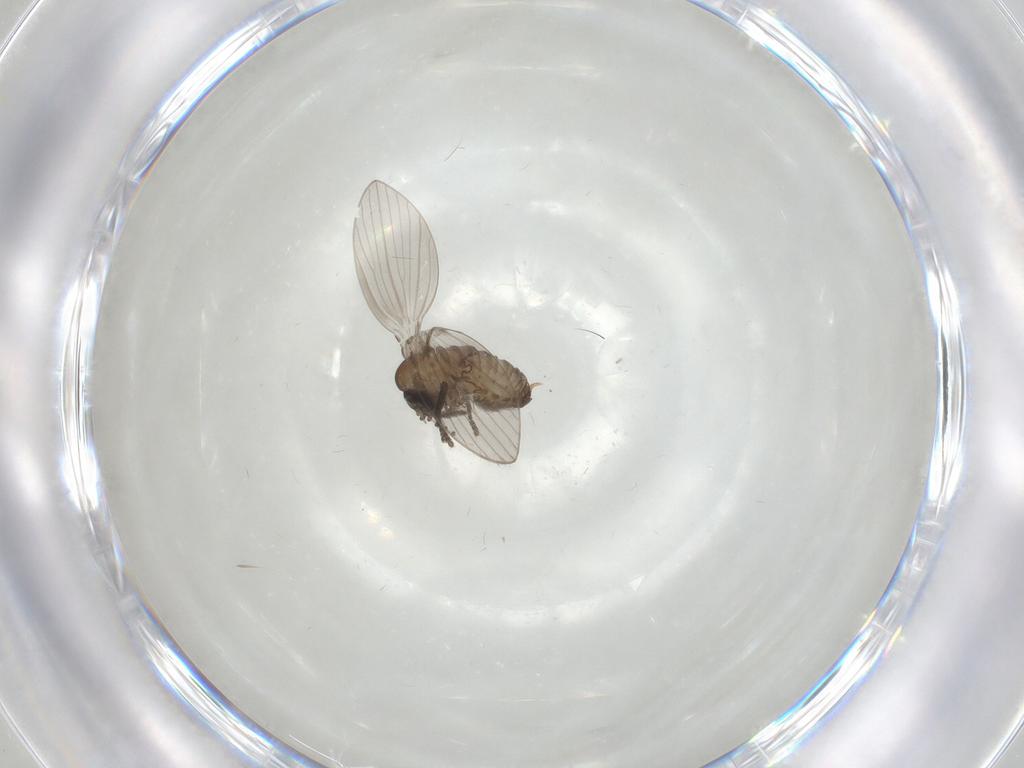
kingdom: Animalia
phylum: Arthropoda
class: Insecta
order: Diptera
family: Psychodidae
